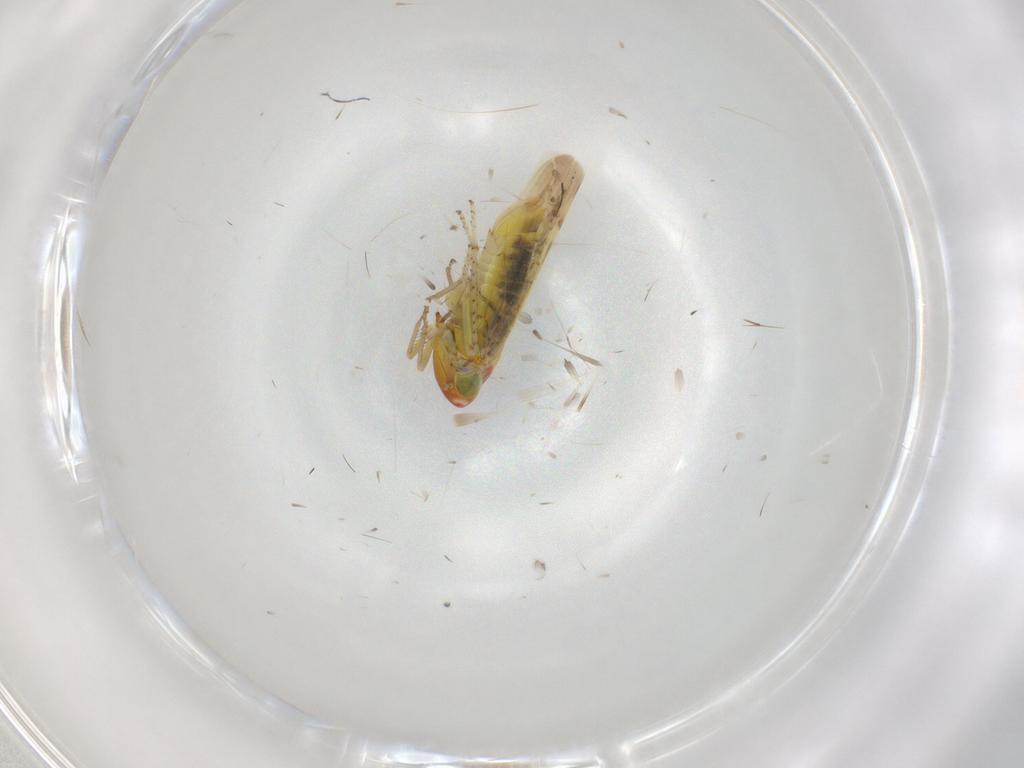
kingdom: Animalia
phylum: Arthropoda
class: Insecta
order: Hemiptera
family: Cicadellidae
